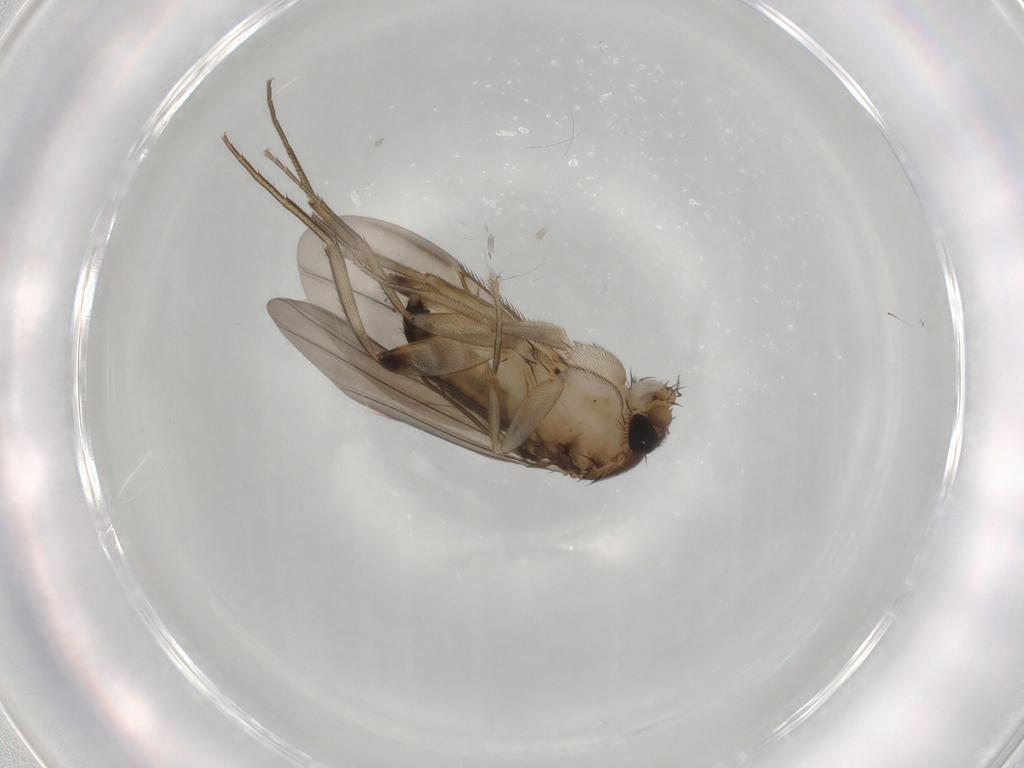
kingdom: Animalia
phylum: Arthropoda
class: Insecta
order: Diptera
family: Phoridae
